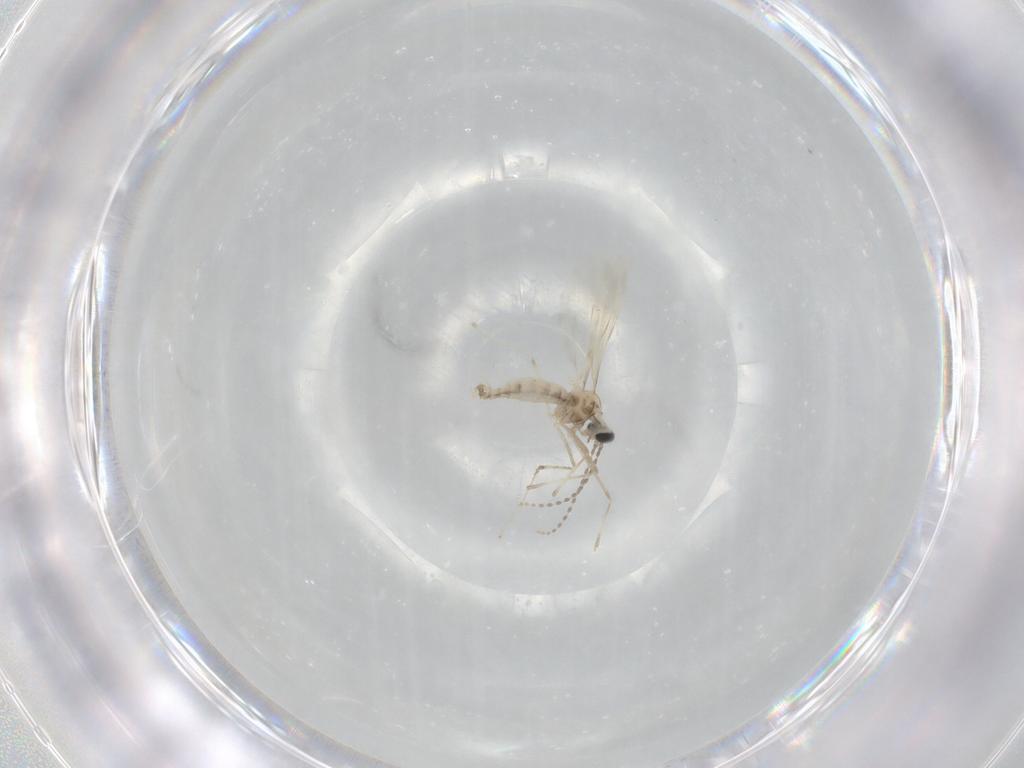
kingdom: Animalia
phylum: Arthropoda
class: Insecta
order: Diptera
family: Cecidomyiidae
